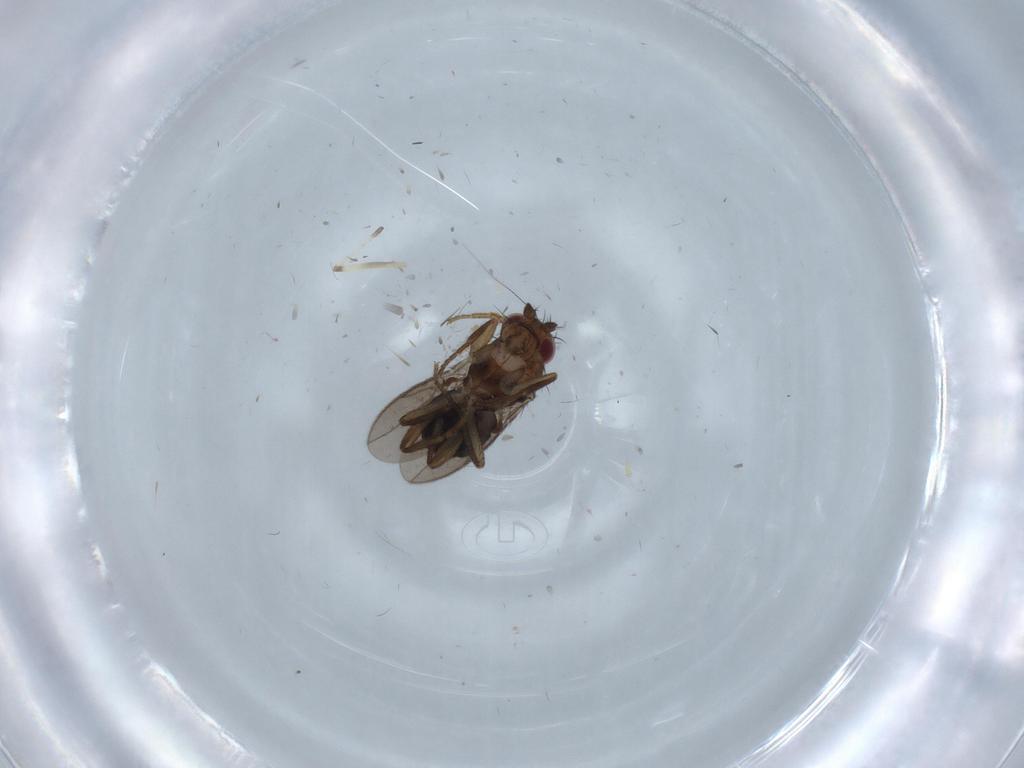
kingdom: Animalia
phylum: Arthropoda
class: Insecta
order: Diptera
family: Sphaeroceridae
